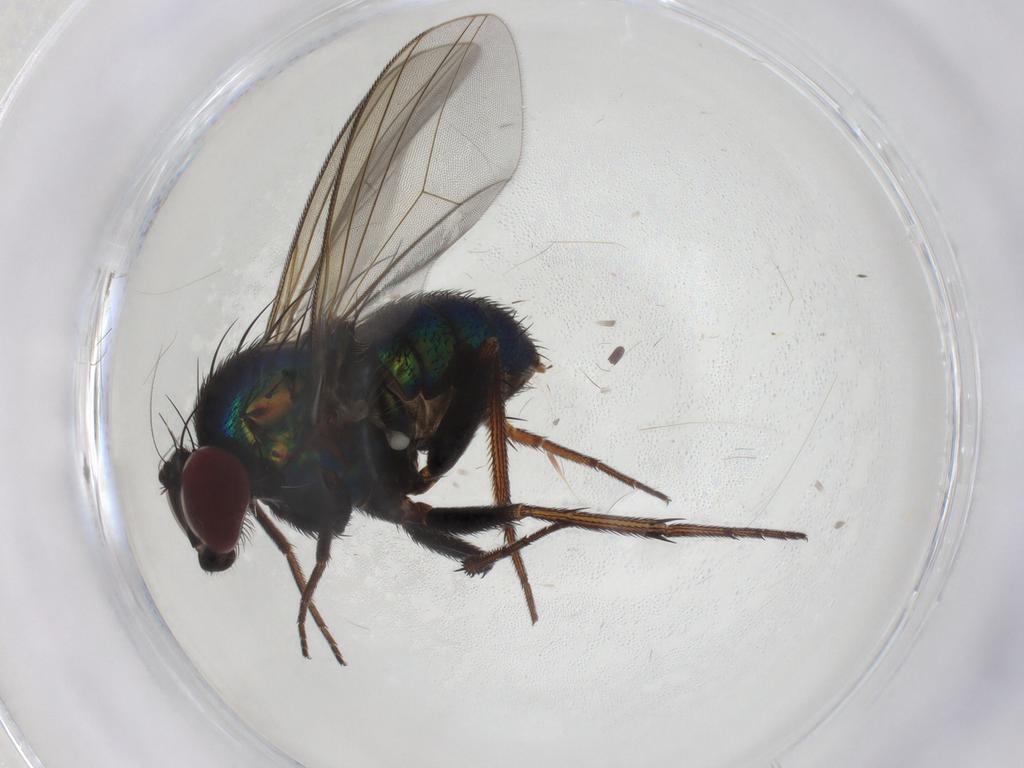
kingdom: Animalia
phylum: Arthropoda
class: Insecta
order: Diptera
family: Dolichopodidae
